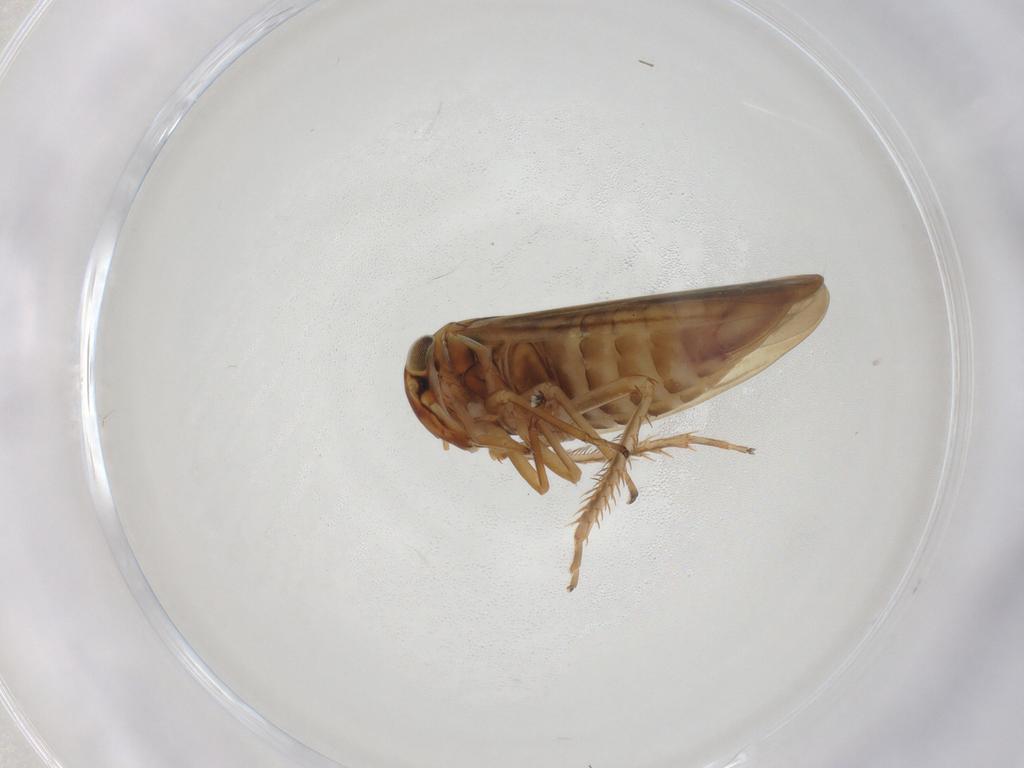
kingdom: Animalia
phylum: Arthropoda
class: Insecta
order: Hemiptera
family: Cicadellidae
